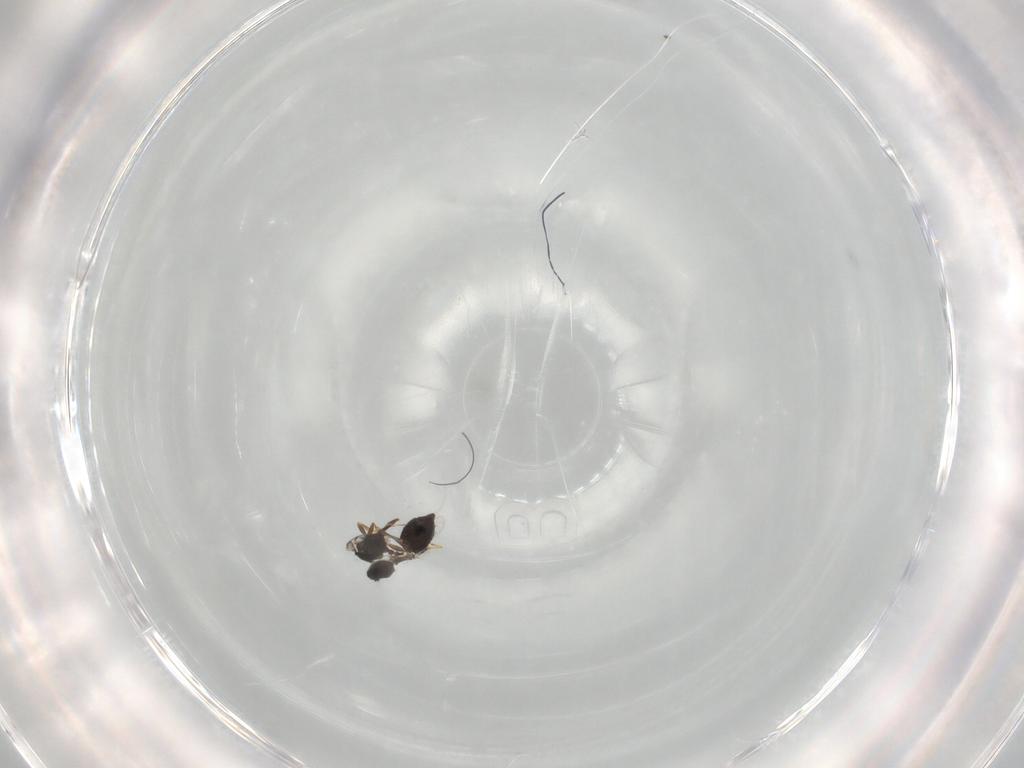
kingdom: Animalia
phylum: Arthropoda
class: Insecta
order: Hymenoptera
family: Platygastridae
